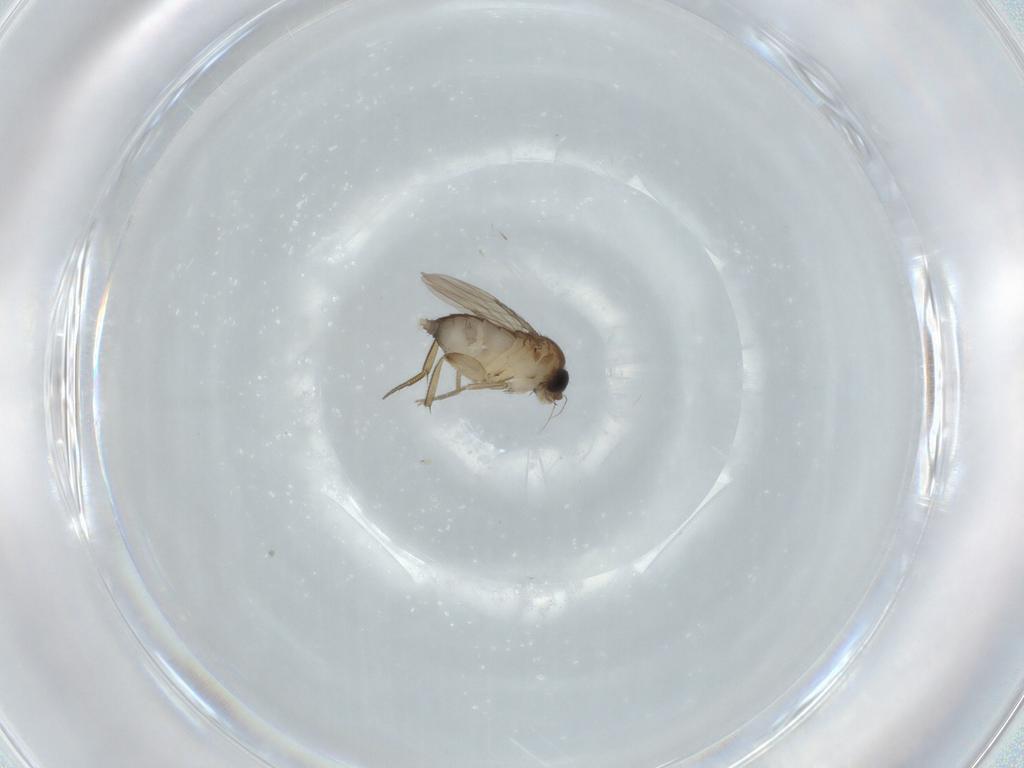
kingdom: Animalia
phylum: Arthropoda
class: Insecta
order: Diptera
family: Phoridae
